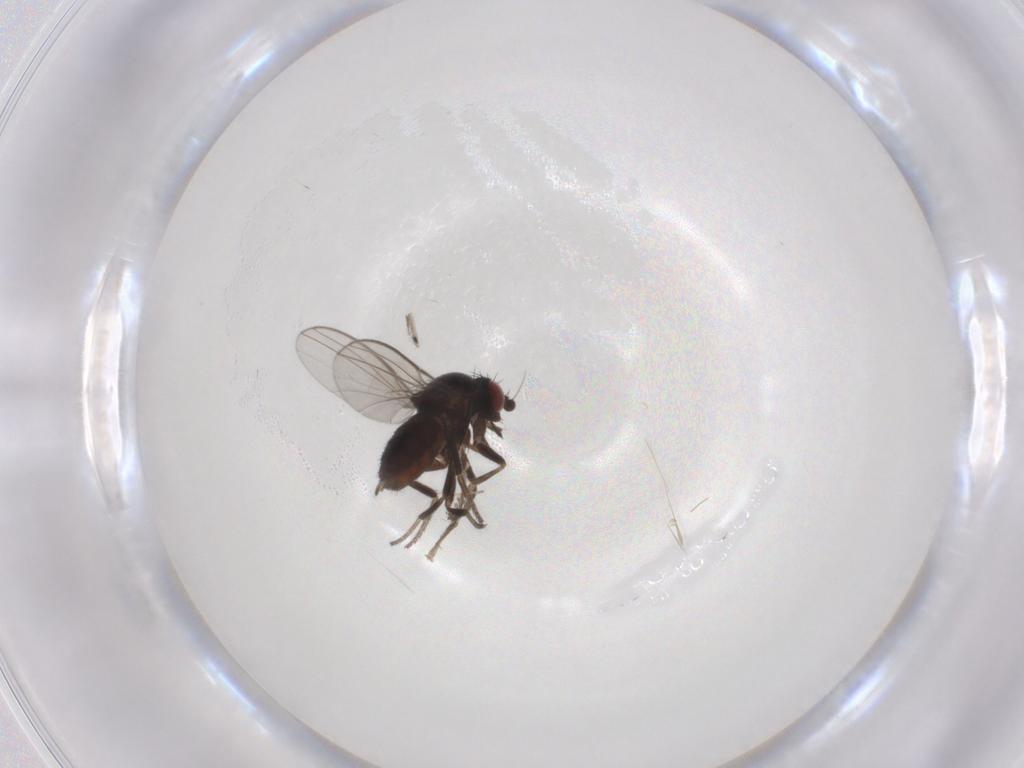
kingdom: Animalia
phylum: Arthropoda
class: Insecta
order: Diptera
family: Milichiidae
